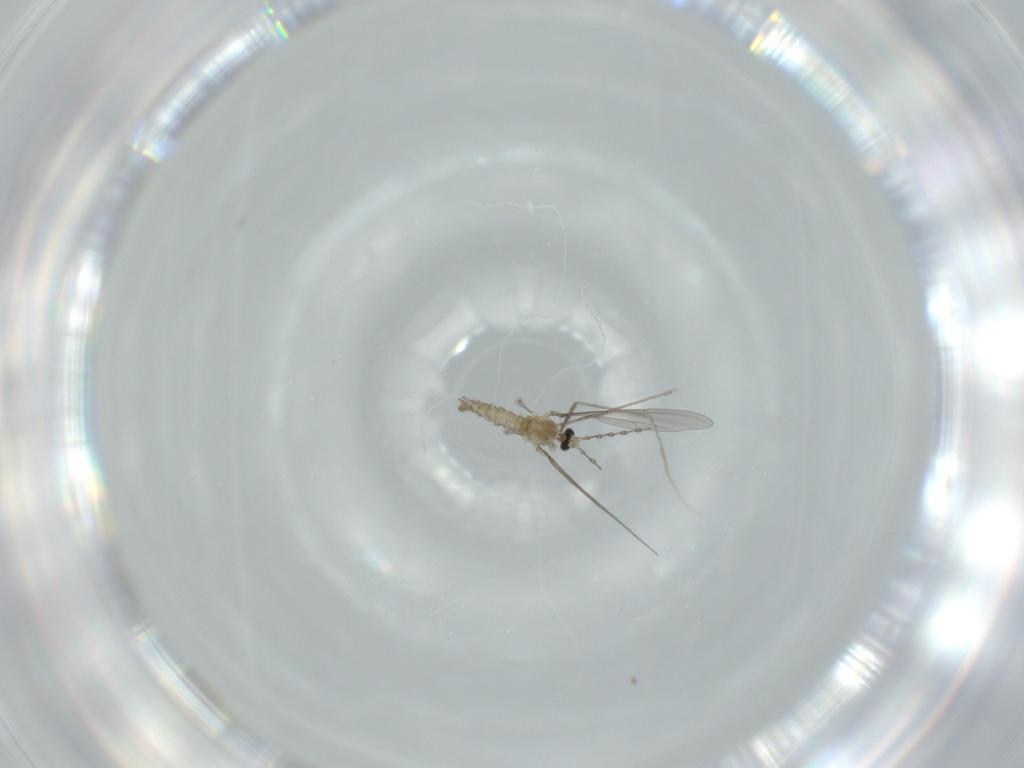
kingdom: Animalia
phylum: Arthropoda
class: Insecta
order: Diptera
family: Cecidomyiidae
